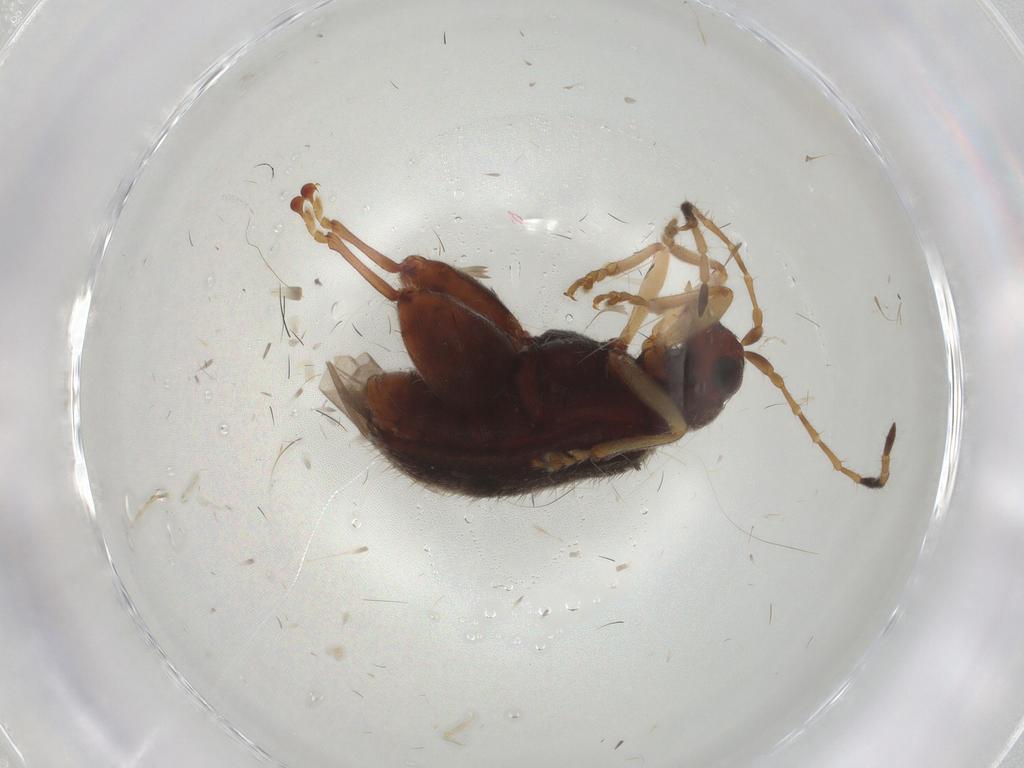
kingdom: Animalia
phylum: Arthropoda
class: Insecta
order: Coleoptera
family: Chrysomelidae
